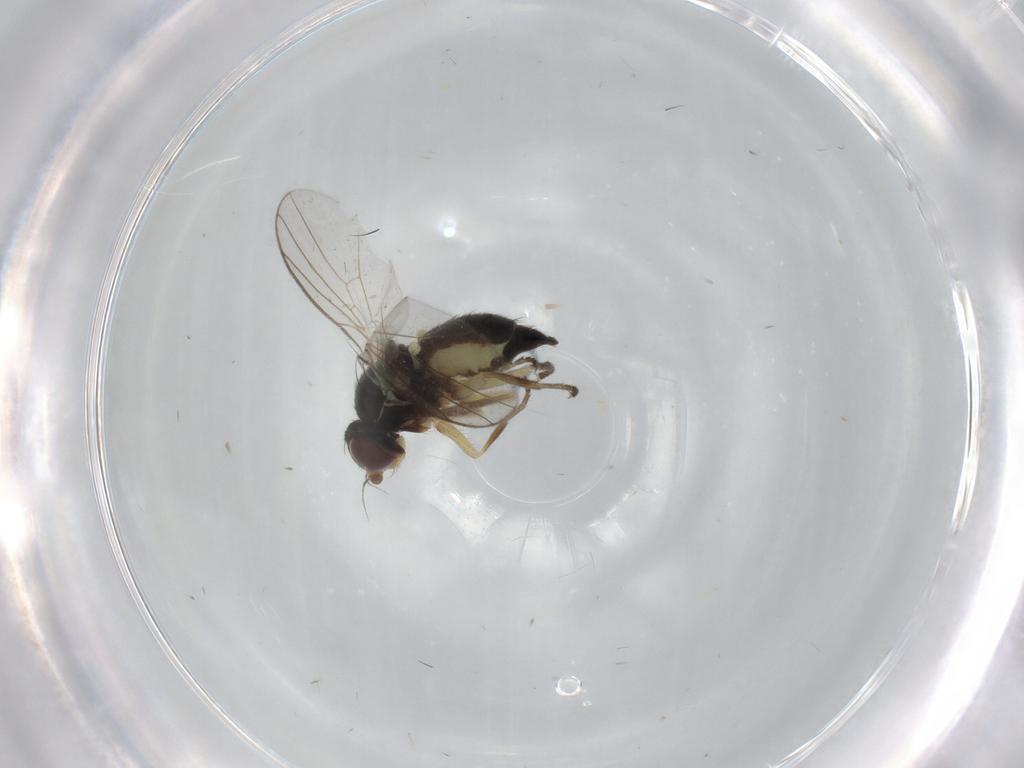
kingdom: Animalia
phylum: Arthropoda
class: Insecta
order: Diptera
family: Agromyzidae
